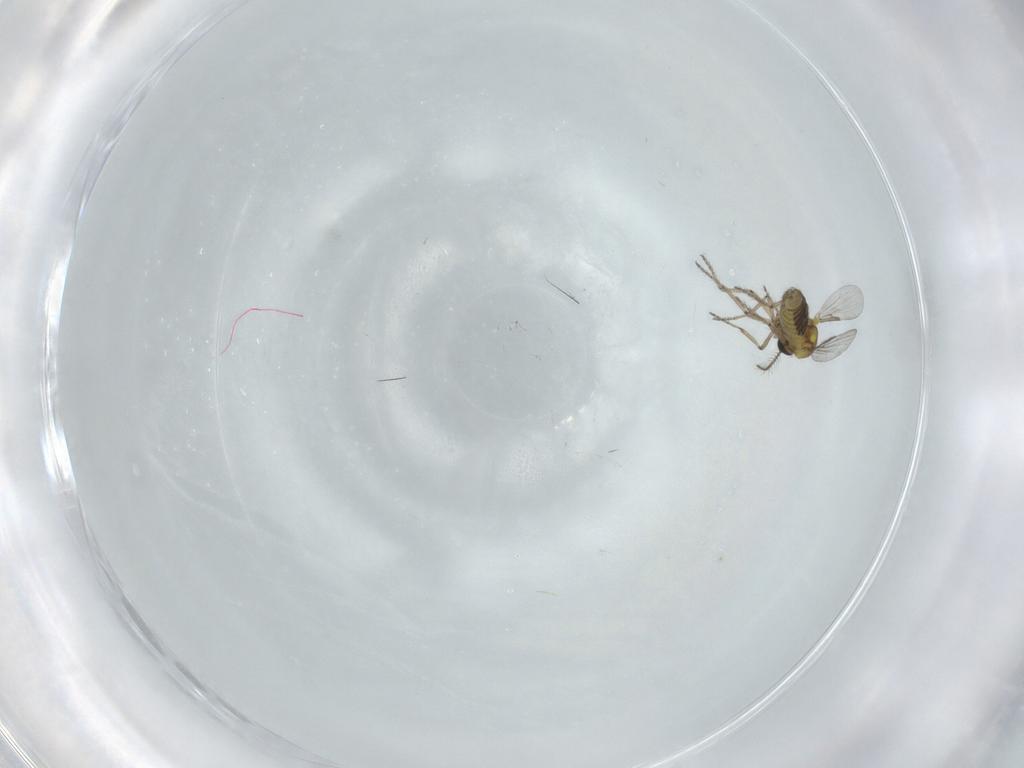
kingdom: Animalia
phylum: Arthropoda
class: Insecta
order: Diptera
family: Ceratopogonidae
